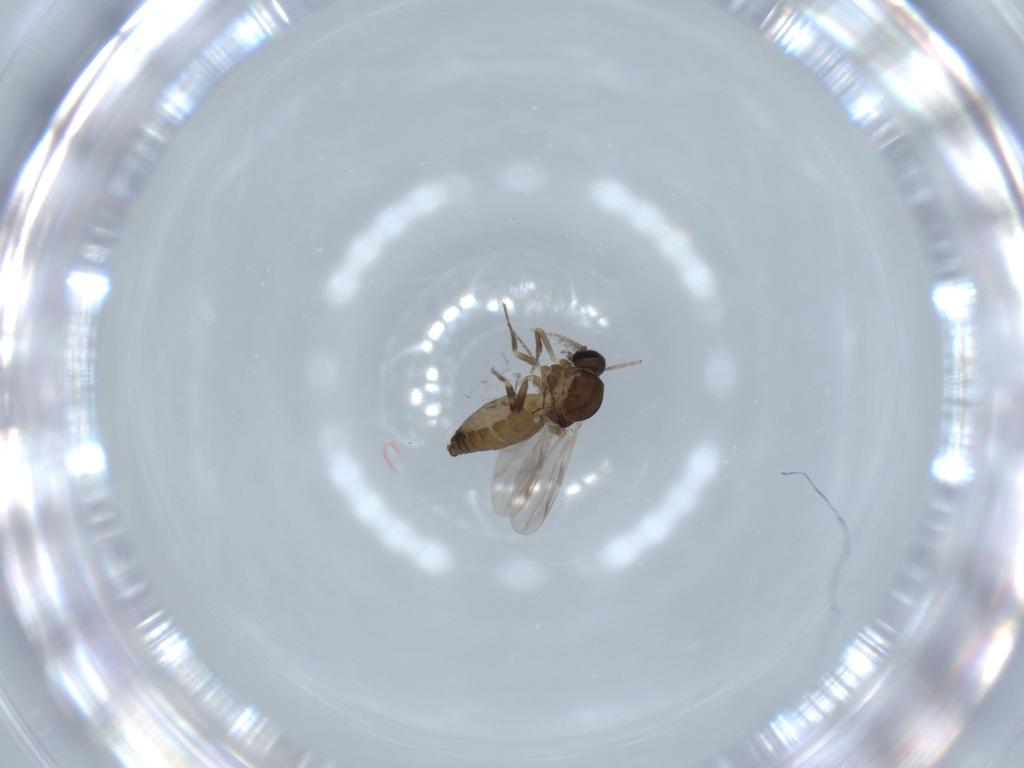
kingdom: Animalia
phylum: Arthropoda
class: Insecta
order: Diptera
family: Ceratopogonidae
